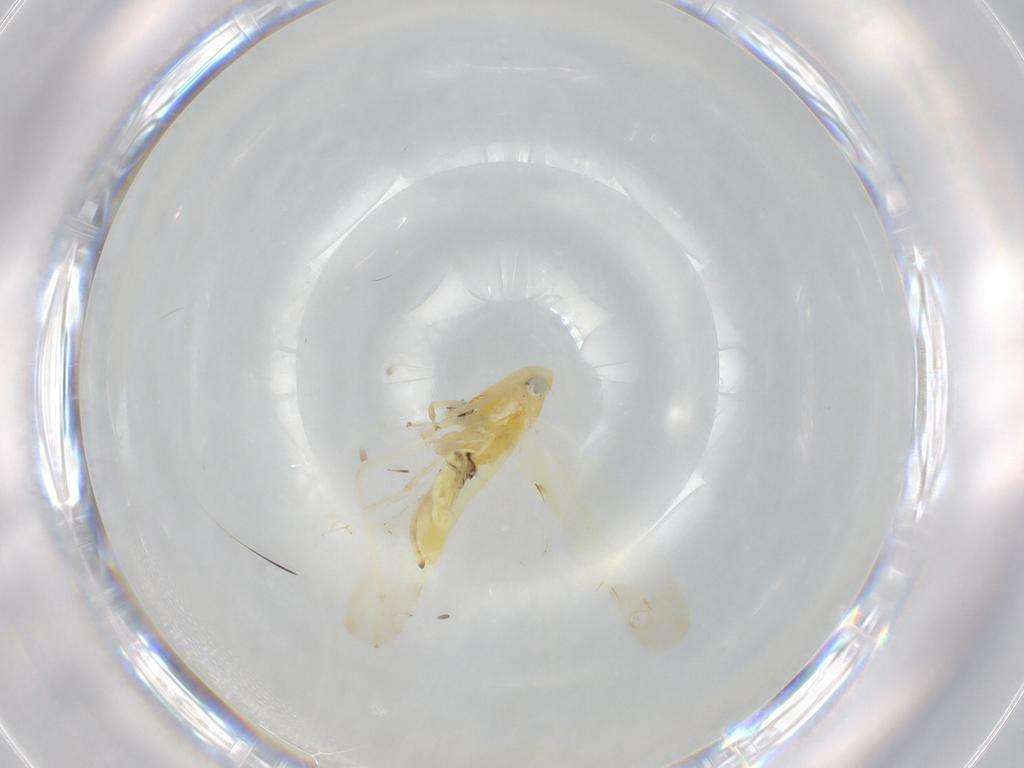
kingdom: Animalia
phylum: Arthropoda
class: Insecta
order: Hemiptera
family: Cicadellidae
